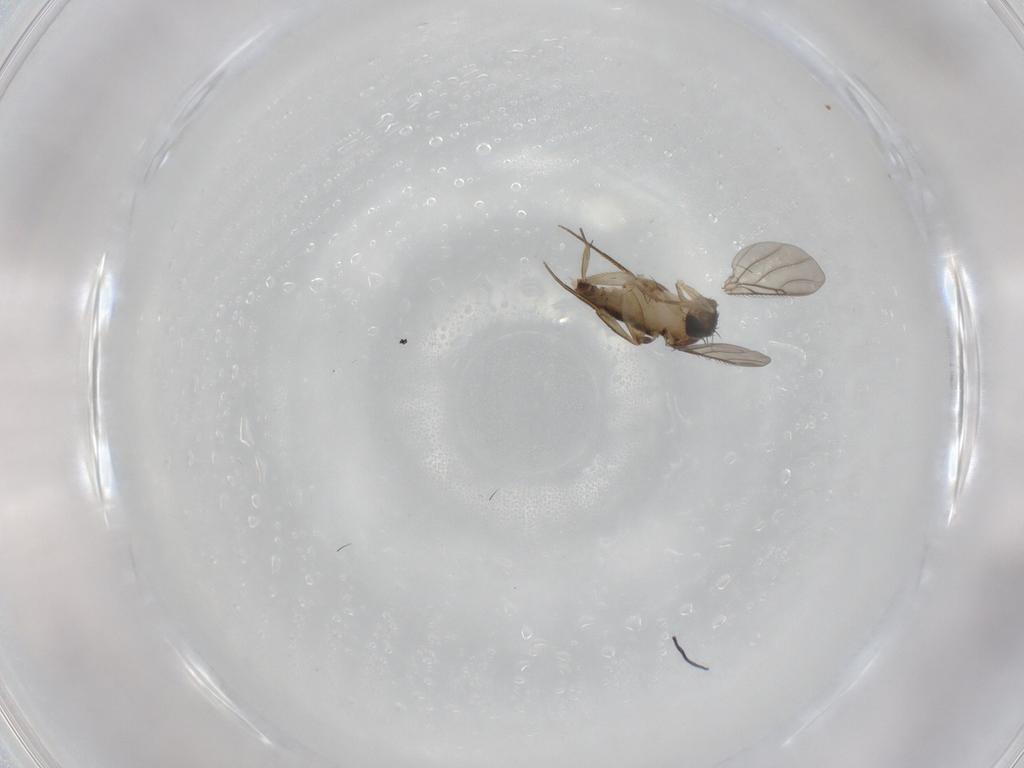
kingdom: Animalia
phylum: Arthropoda
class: Insecta
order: Diptera
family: Phoridae
